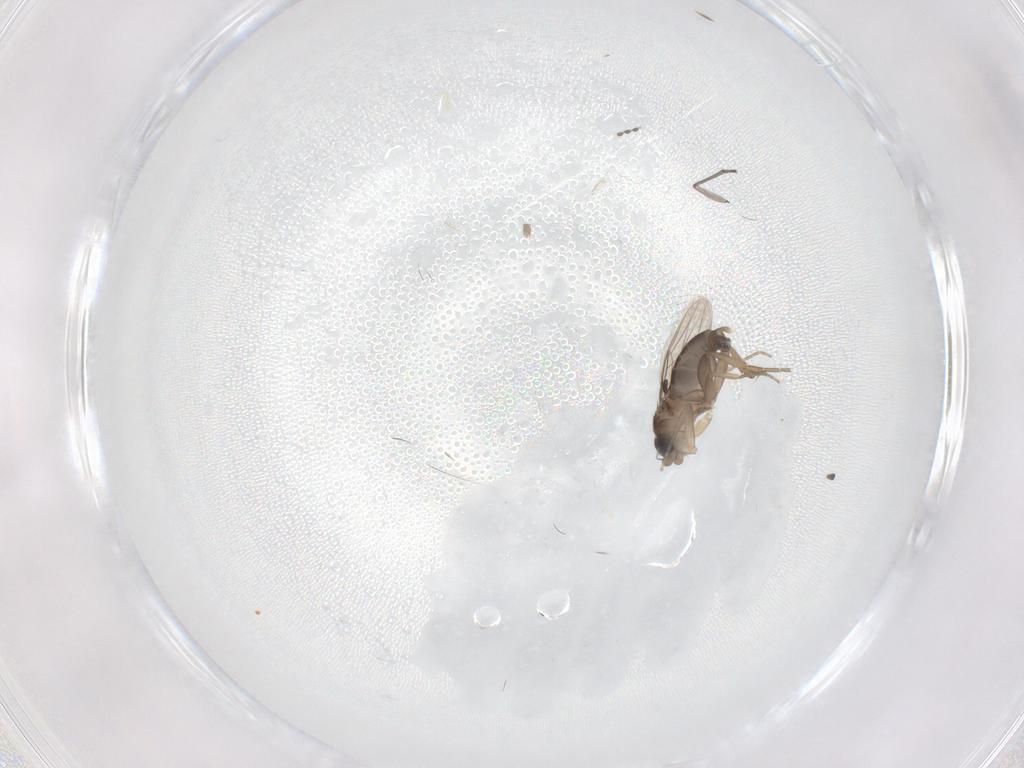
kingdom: Animalia
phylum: Arthropoda
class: Insecta
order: Diptera
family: Phoridae
